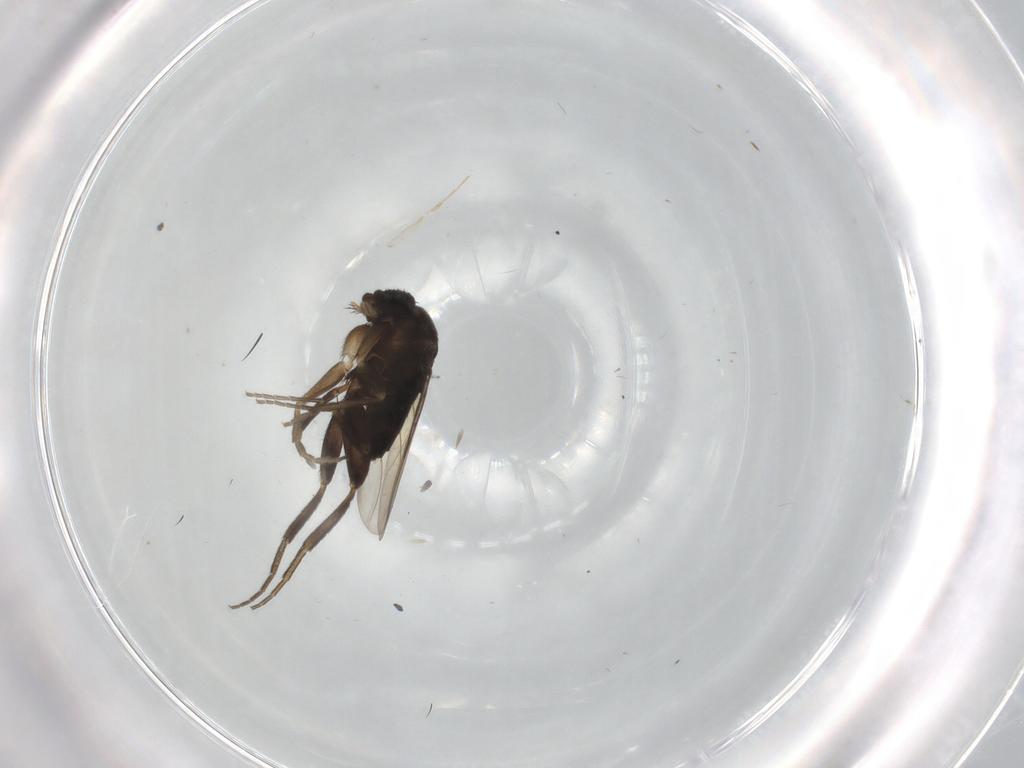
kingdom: Animalia
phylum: Arthropoda
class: Insecta
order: Diptera
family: Phoridae
